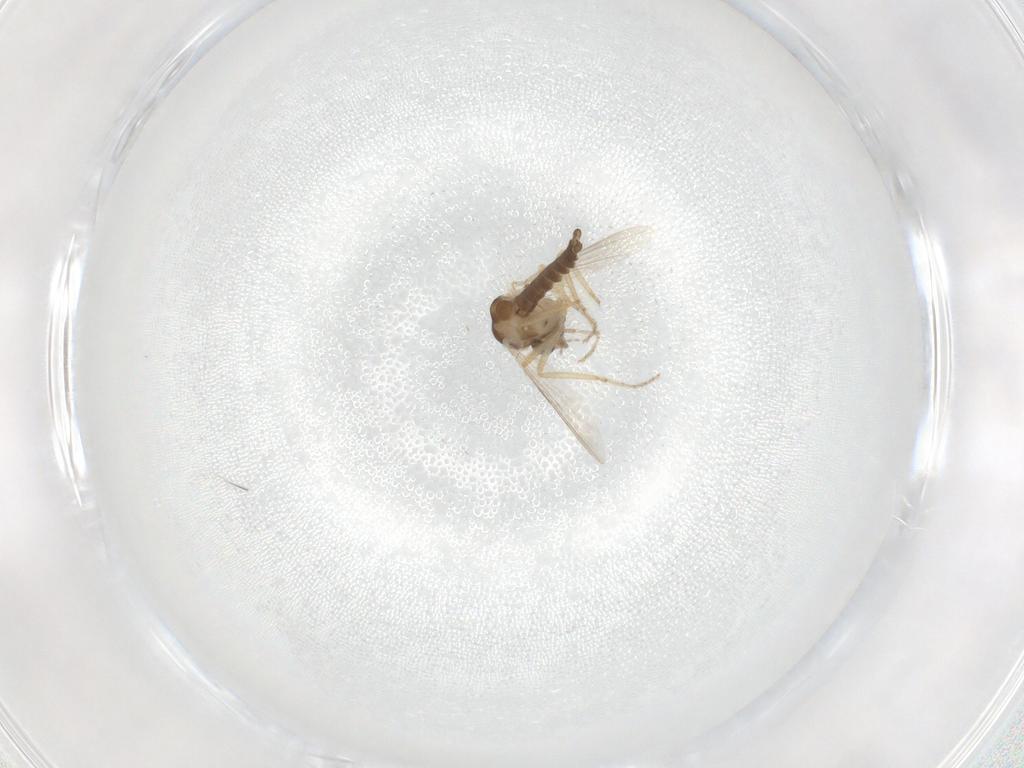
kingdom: Animalia
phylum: Arthropoda
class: Insecta
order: Diptera
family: Ceratopogonidae
